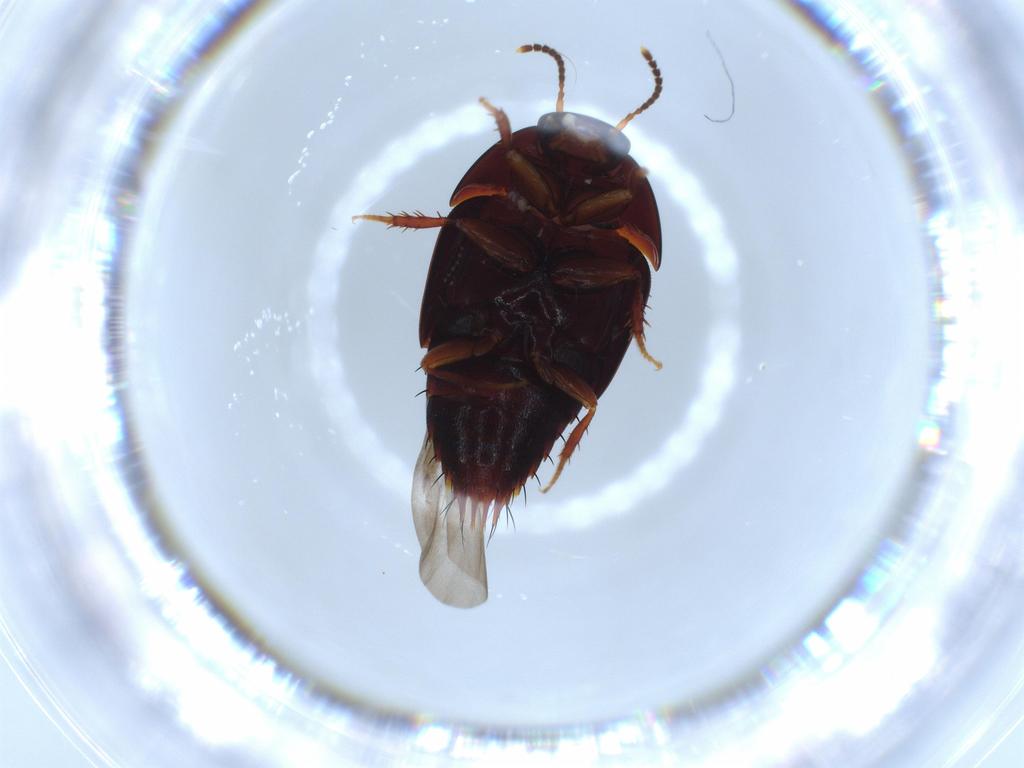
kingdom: Animalia
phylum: Arthropoda
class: Insecta
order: Coleoptera
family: Staphylinidae
